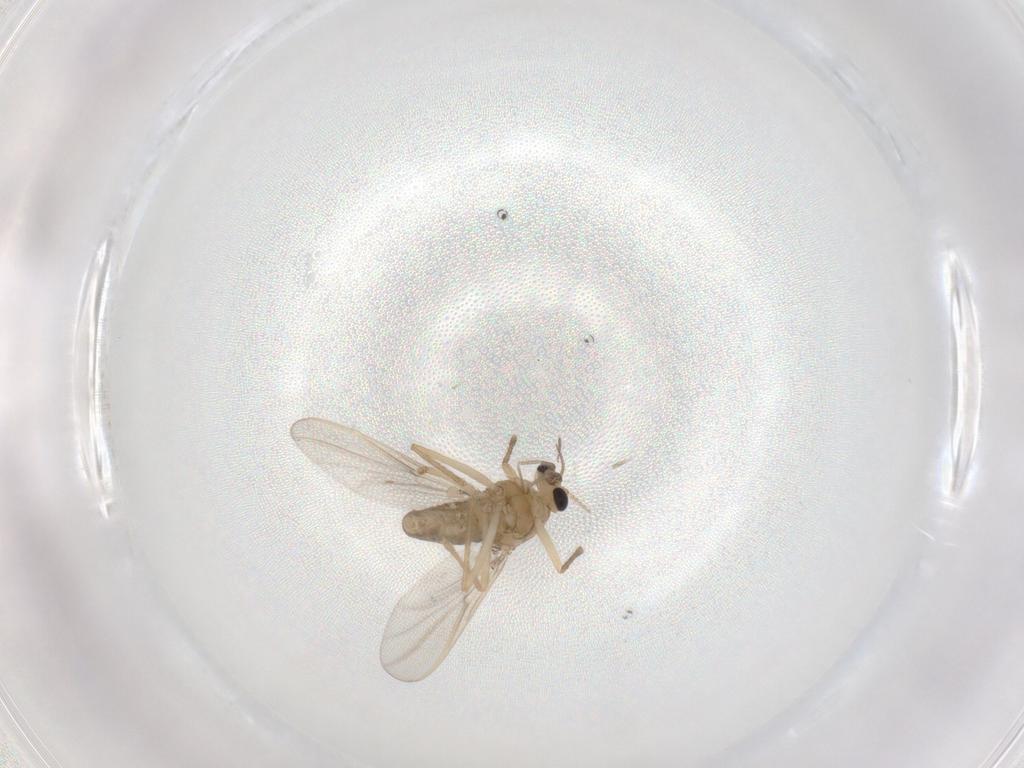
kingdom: Animalia
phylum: Arthropoda
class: Insecta
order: Diptera
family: Chironomidae
